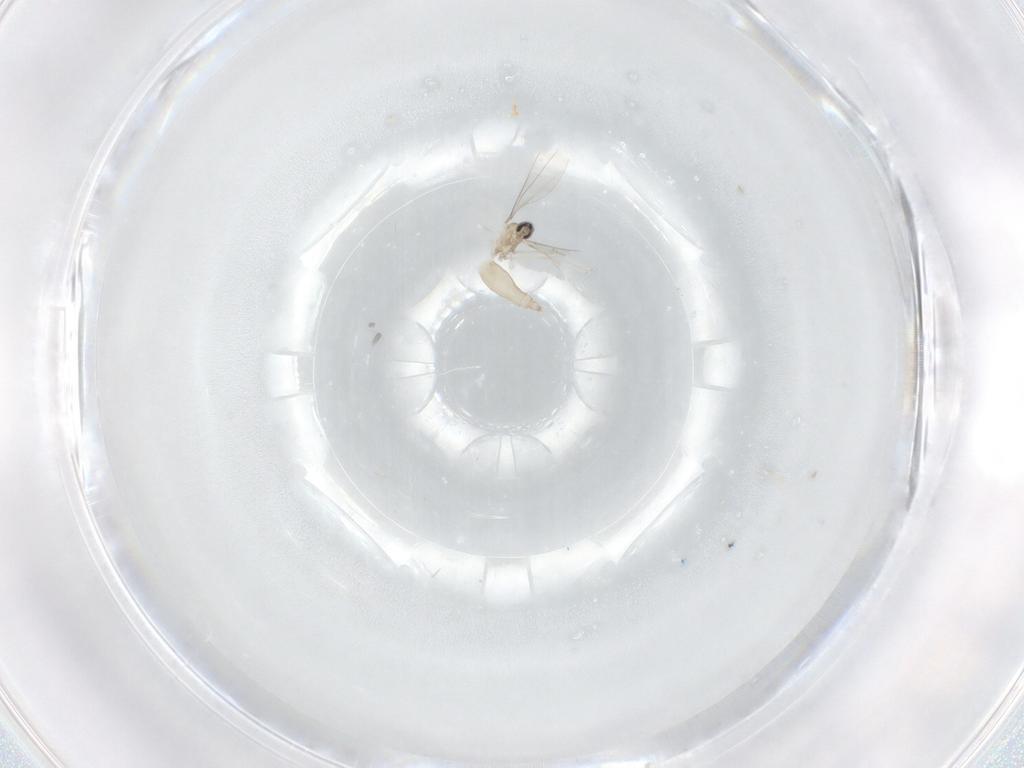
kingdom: Animalia
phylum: Arthropoda
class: Insecta
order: Diptera
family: Cecidomyiidae
